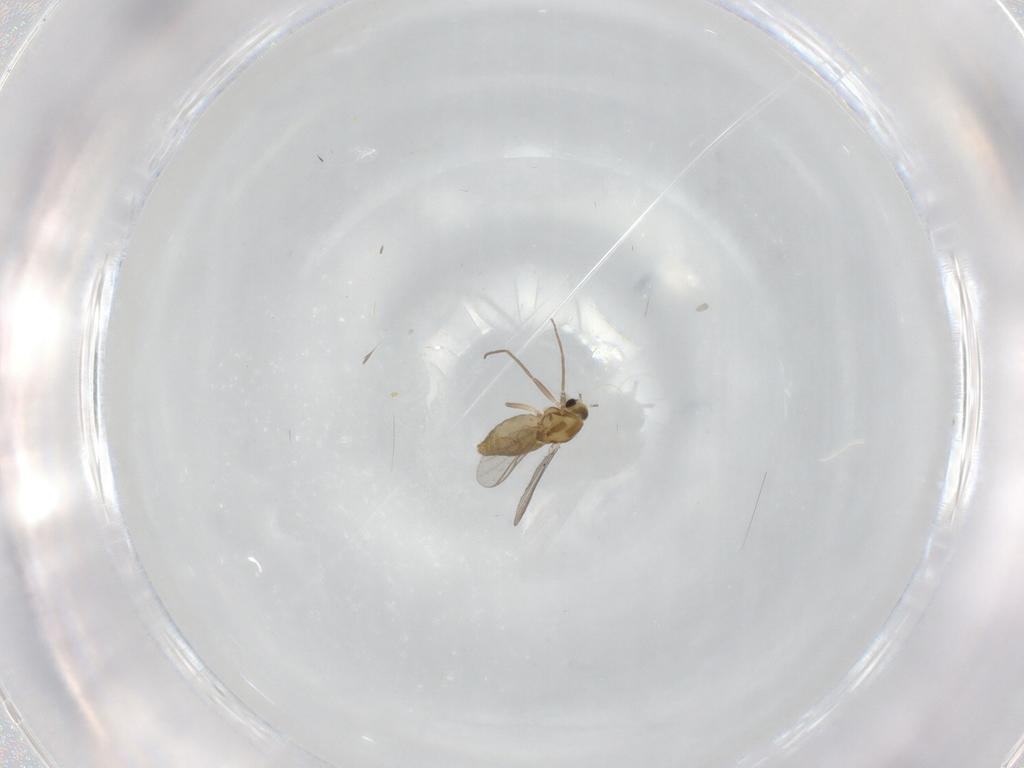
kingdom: Animalia
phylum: Arthropoda
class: Insecta
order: Diptera
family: Chironomidae
